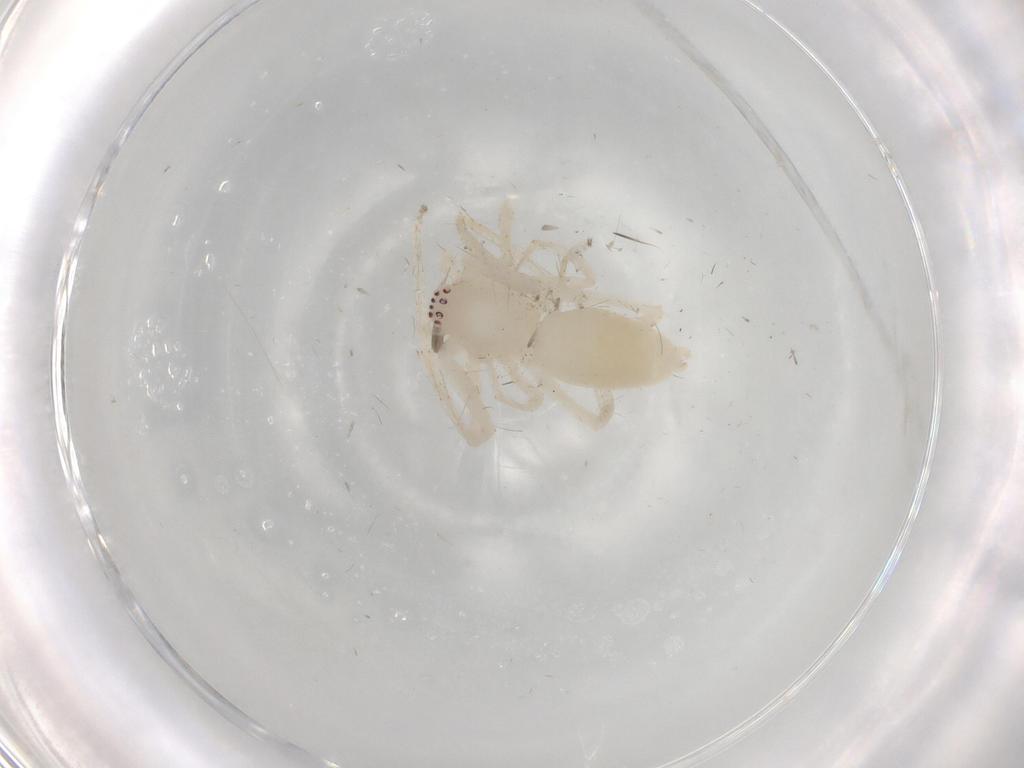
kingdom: Animalia
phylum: Arthropoda
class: Arachnida
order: Araneae
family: Anyphaenidae
